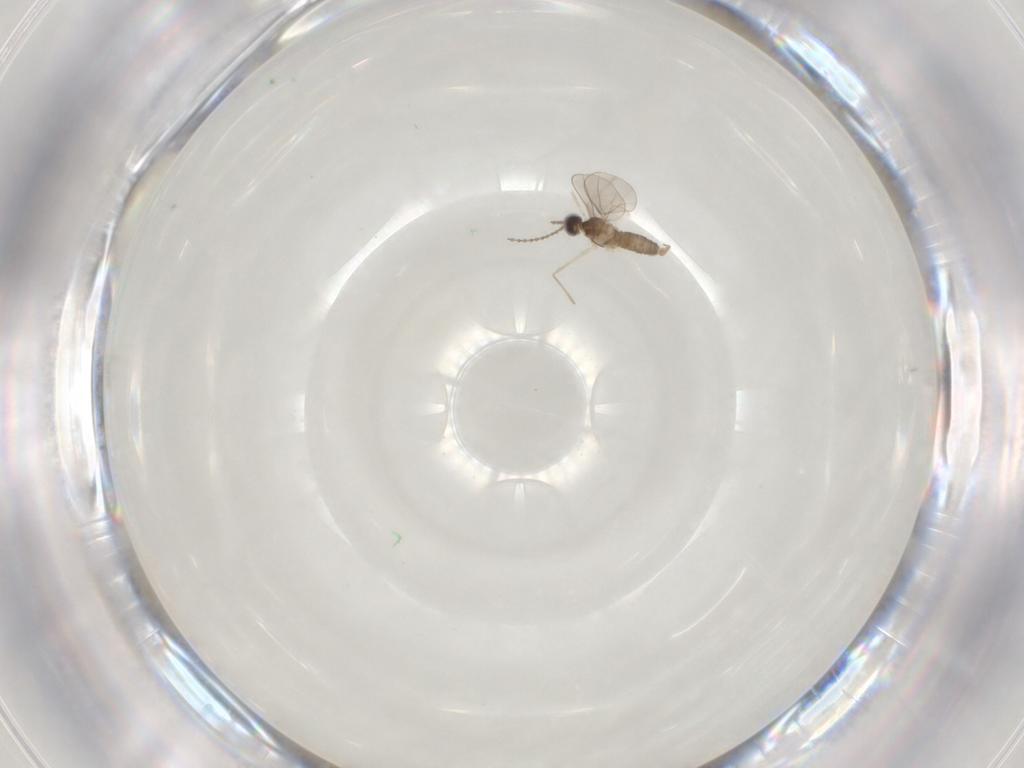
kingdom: Animalia
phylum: Arthropoda
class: Insecta
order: Diptera
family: Cecidomyiidae
